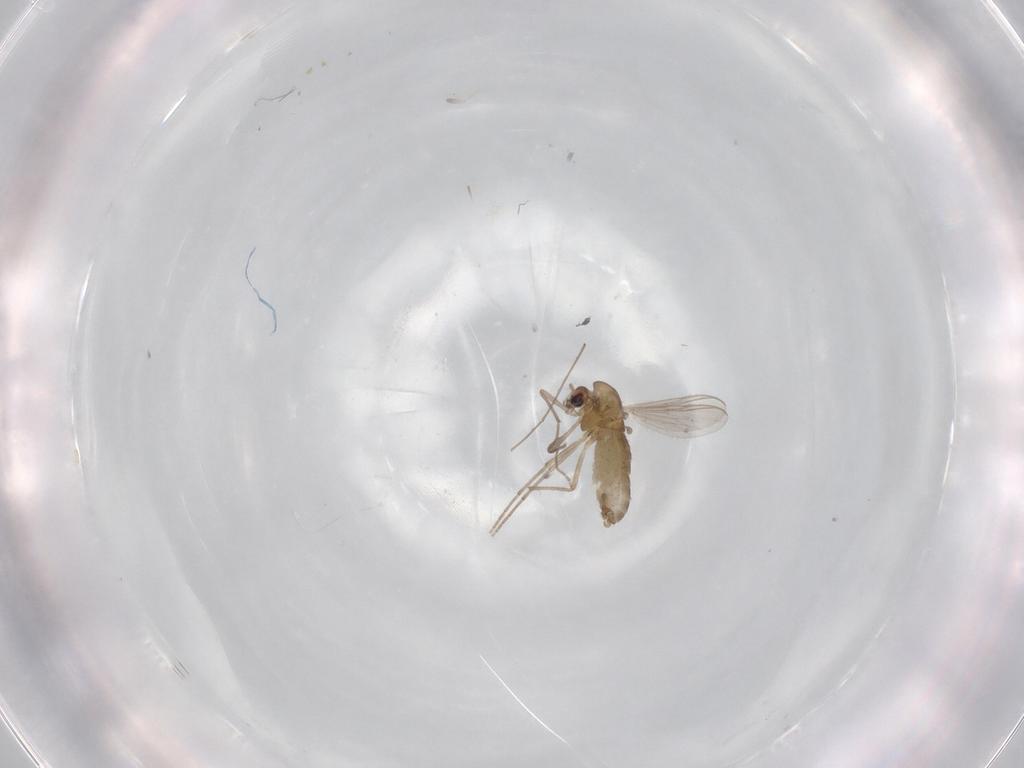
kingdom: Animalia
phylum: Arthropoda
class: Insecta
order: Diptera
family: Chironomidae
